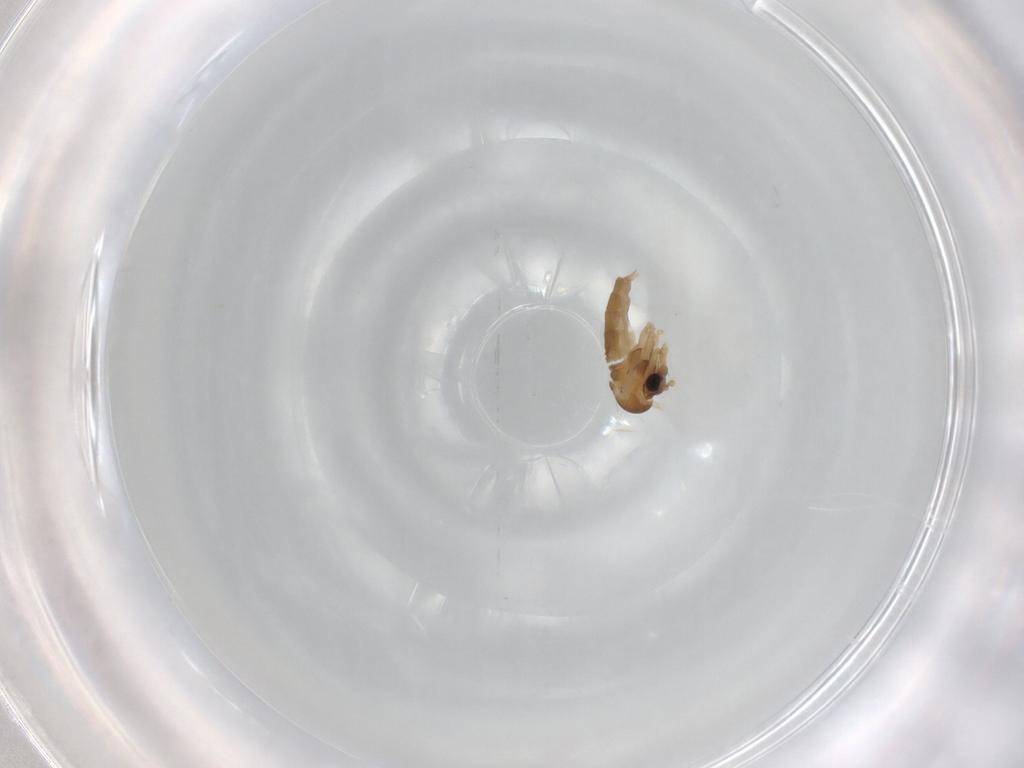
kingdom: Animalia
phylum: Arthropoda
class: Insecta
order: Diptera
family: Psychodidae
